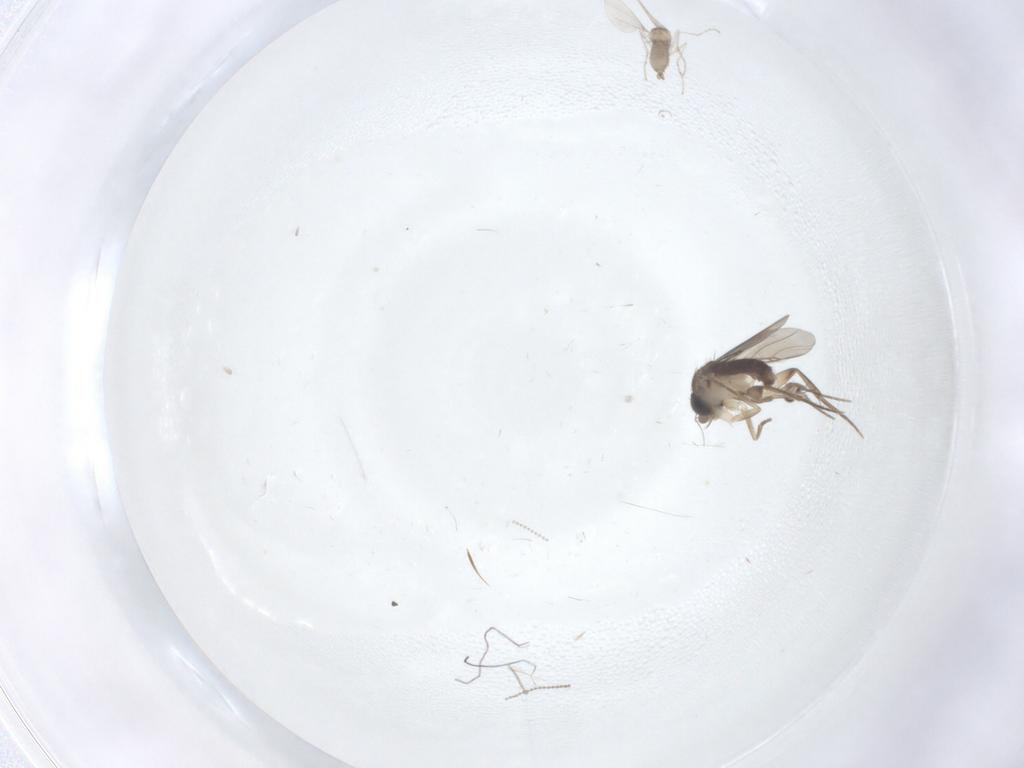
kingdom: Animalia
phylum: Arthropoda
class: Insecta
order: Diptera
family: Phoridae
